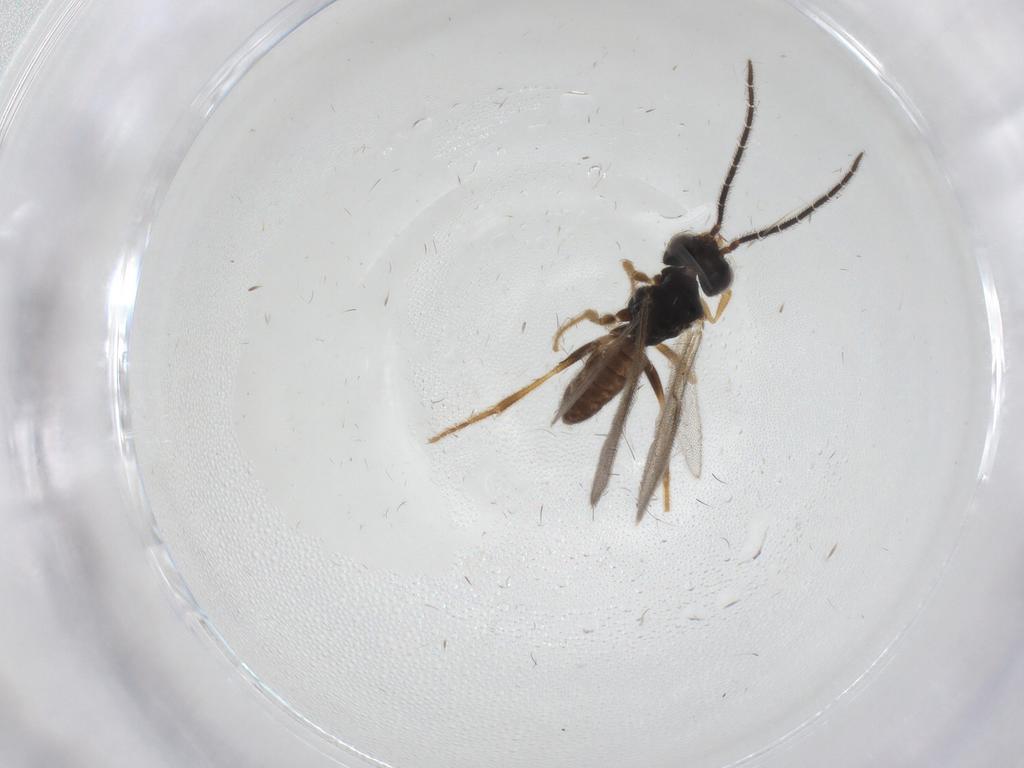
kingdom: Animalia
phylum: Arthropoda
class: Insecta
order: Hymenoptera
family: Dryinidae
